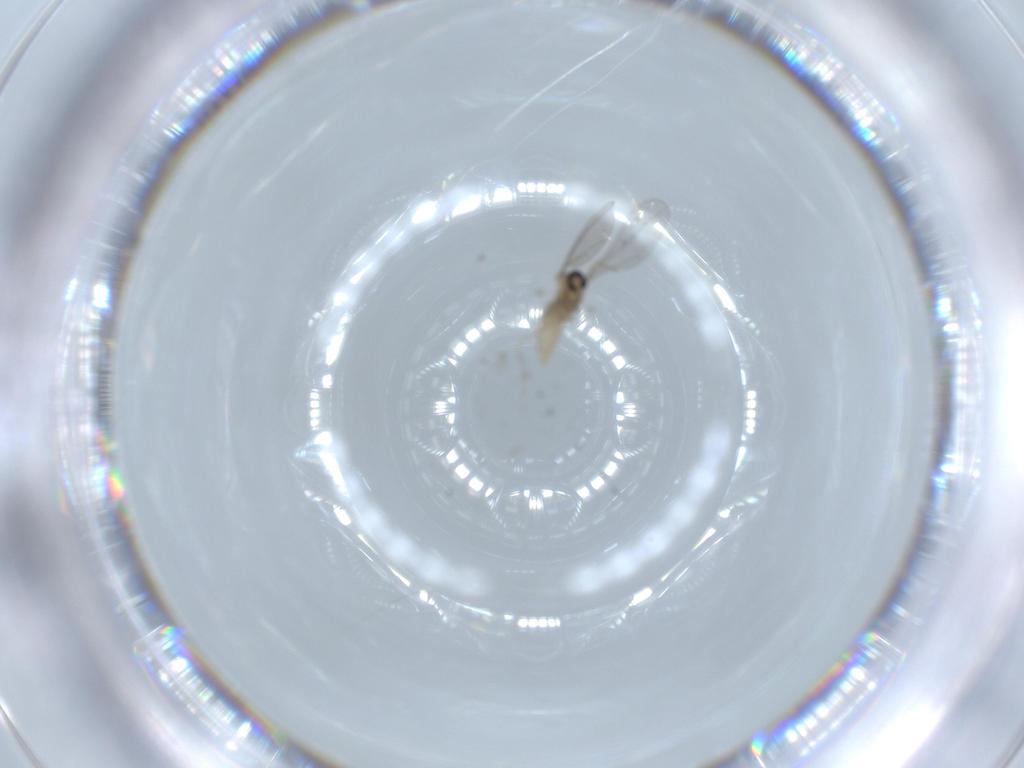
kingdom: Animalia
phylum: Arthropoda
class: Insecta
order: Diptera
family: Cecidomyiidae
